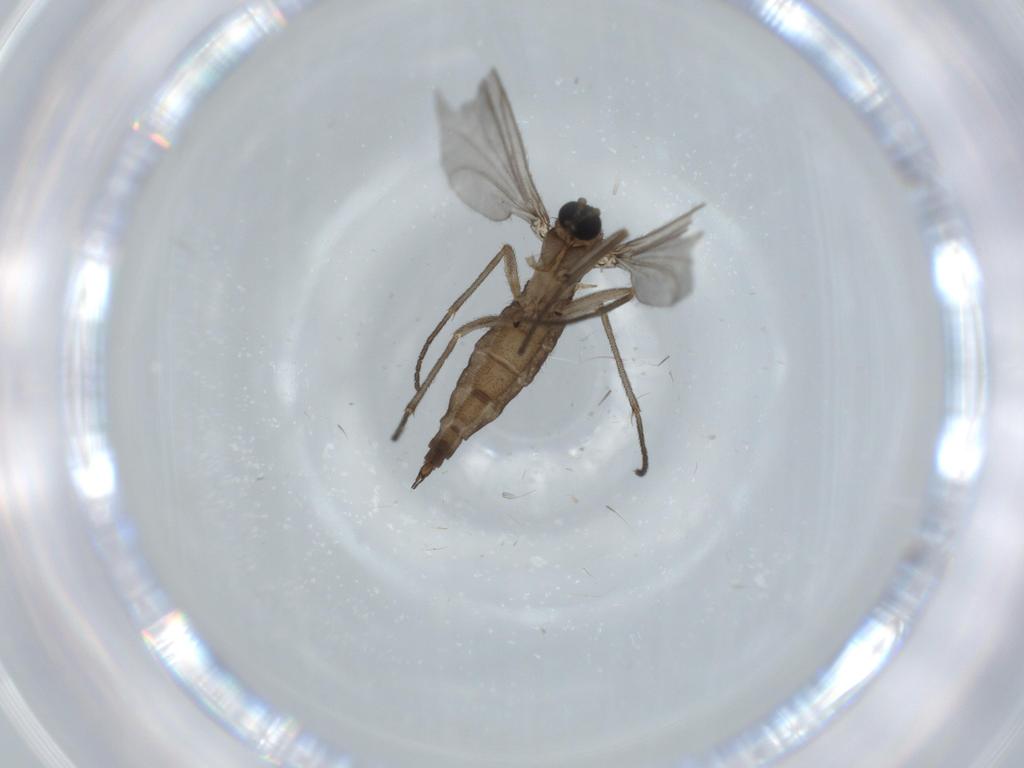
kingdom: Animalia
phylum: Arthropoda
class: Insecta
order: Diptera
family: Sciaridae
